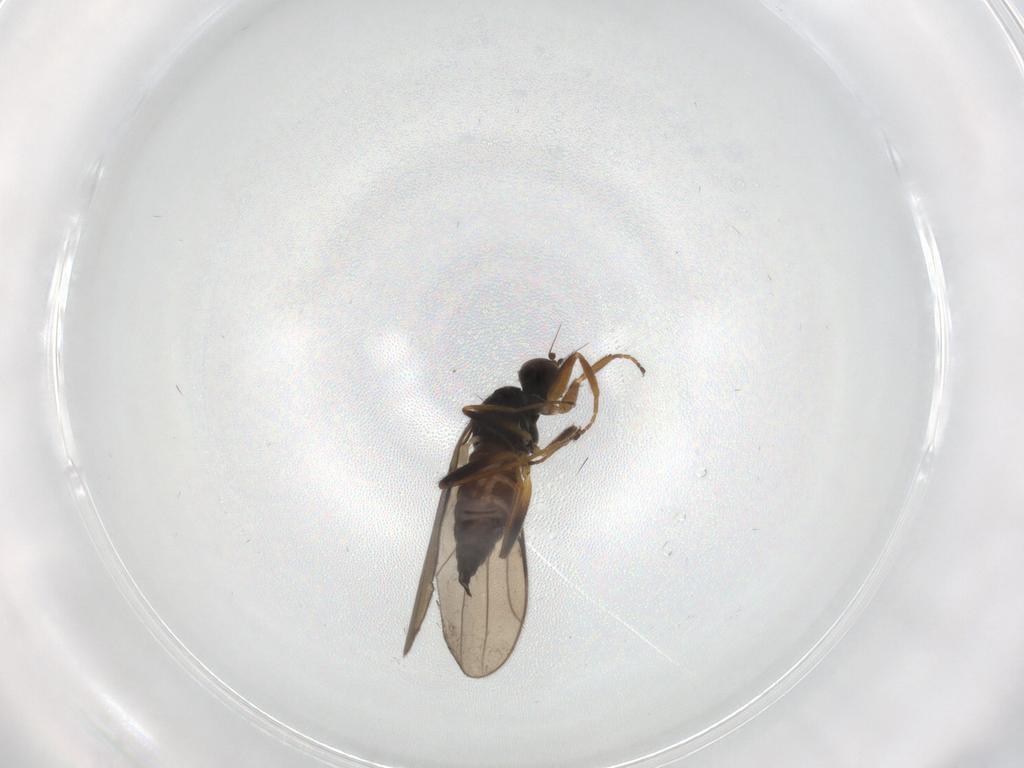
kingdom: Animalia
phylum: Arthropoda
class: Insecta
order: Diptera
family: Hybotidae
